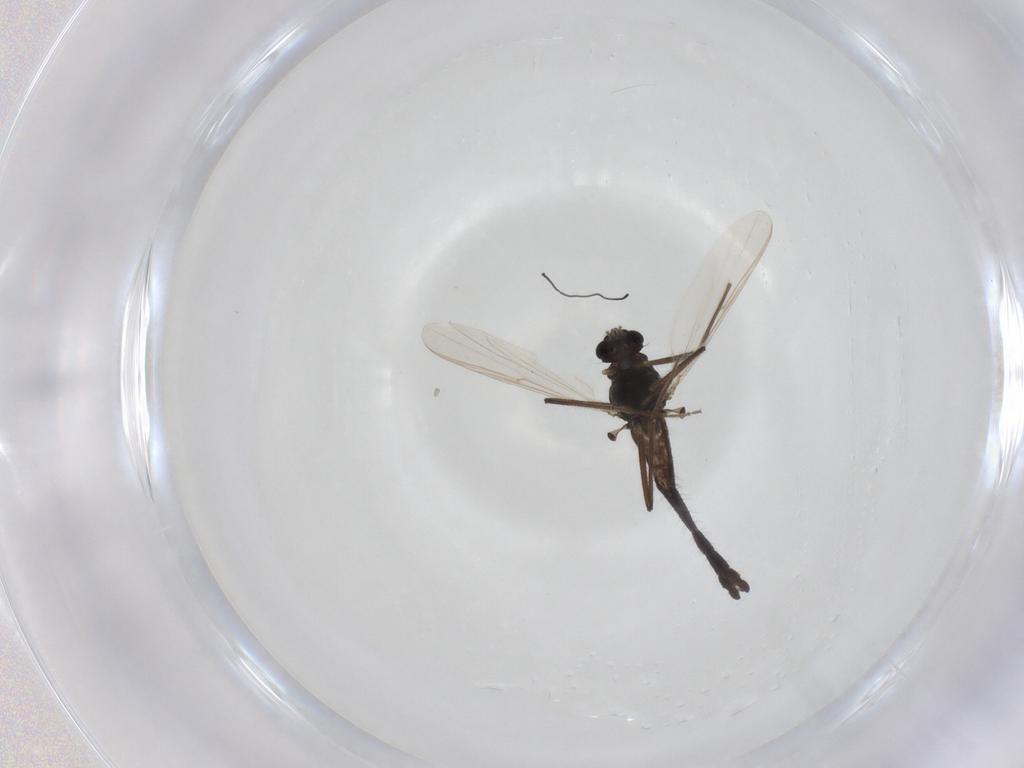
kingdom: Animalia
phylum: Arthropoda
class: Insecta
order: Diptera
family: Chironomidae
